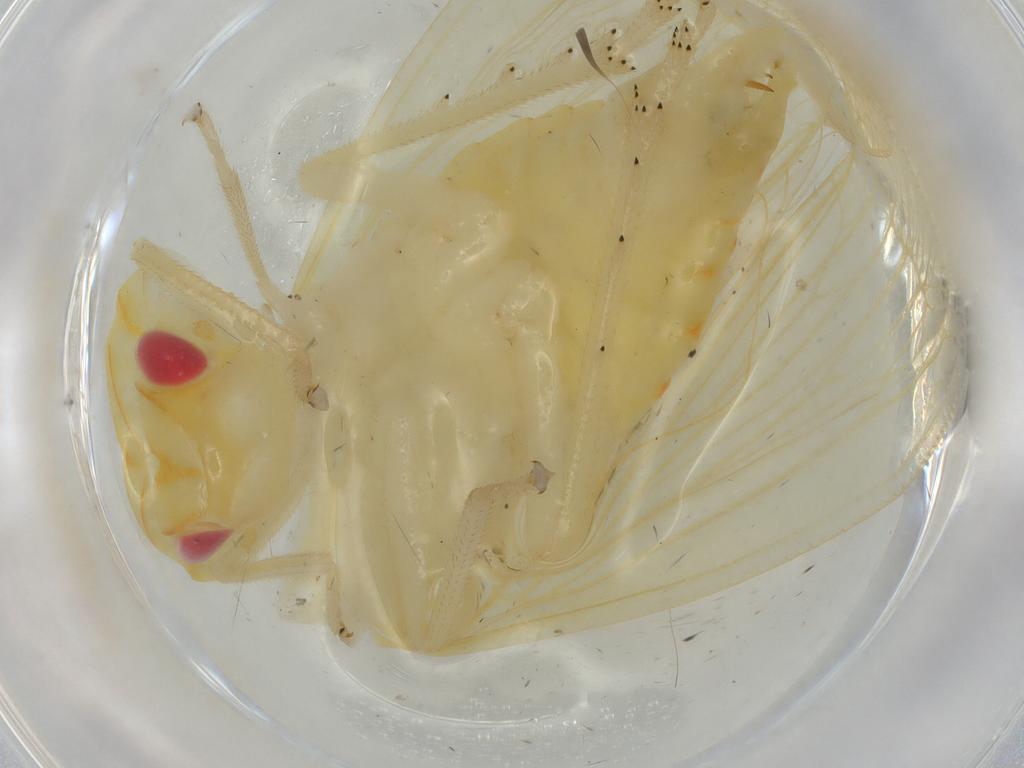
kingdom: Animalia
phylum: Arthropoda
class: Insecta
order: Hemiptera
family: Tropiduchidae
